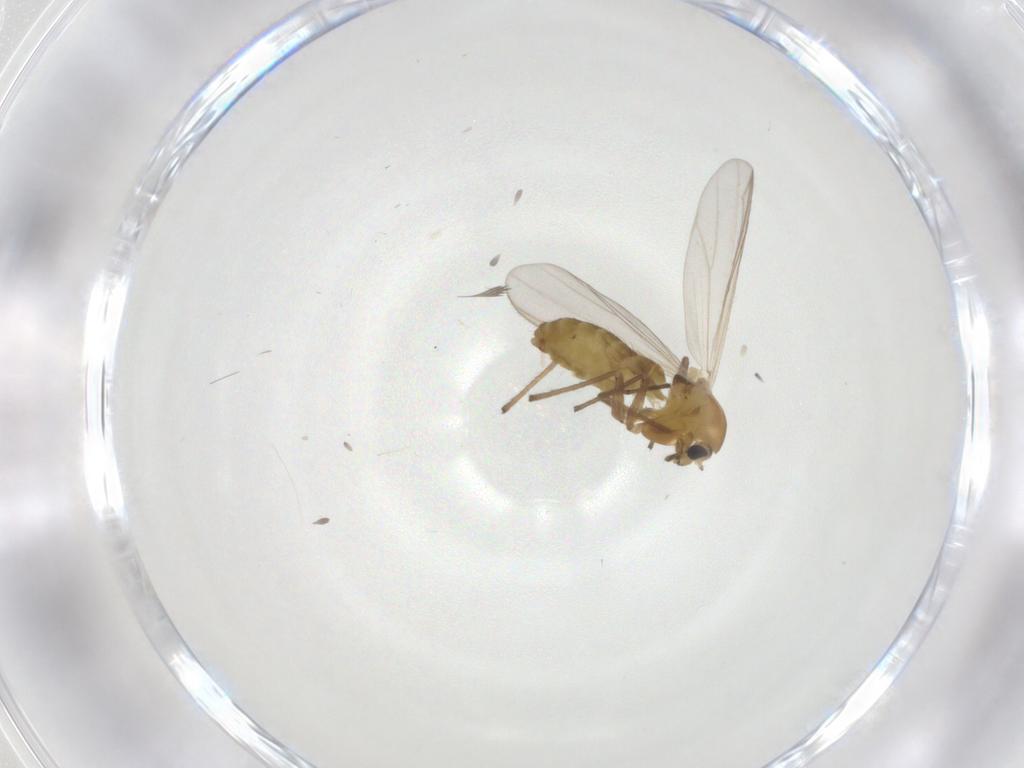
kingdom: Animalia
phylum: Arthropoda
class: Insecta
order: Diptera
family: Chironomidae
